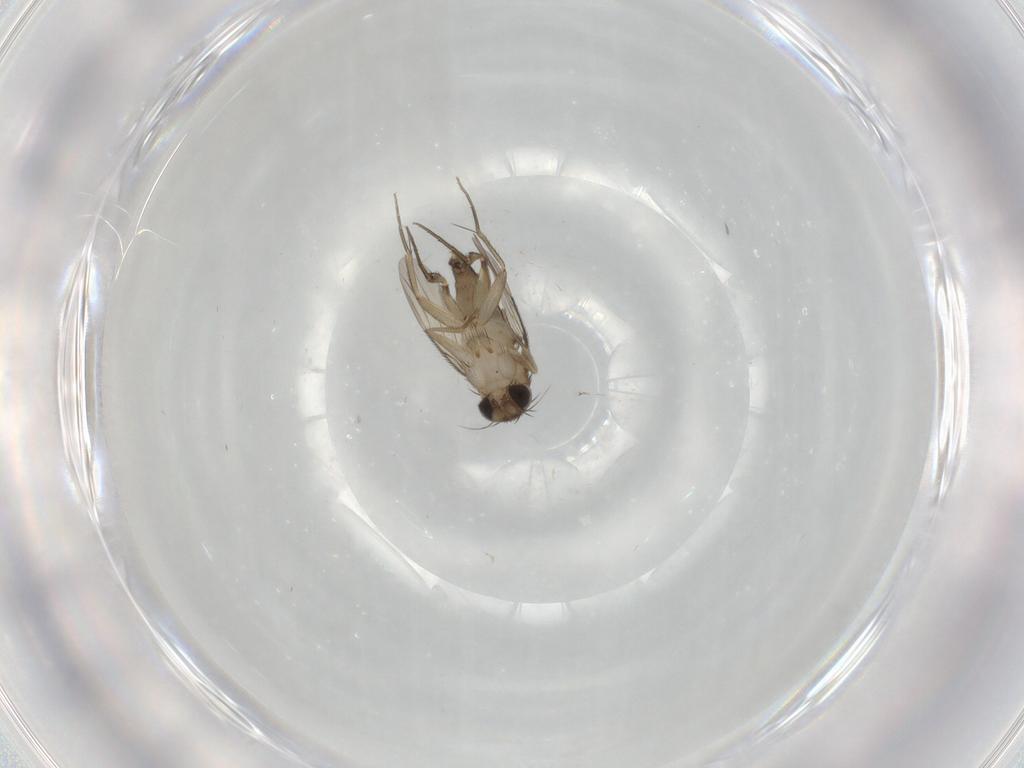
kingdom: Animalia
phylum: Arthropoda
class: Insecta
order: Diptera
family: Phoridae
